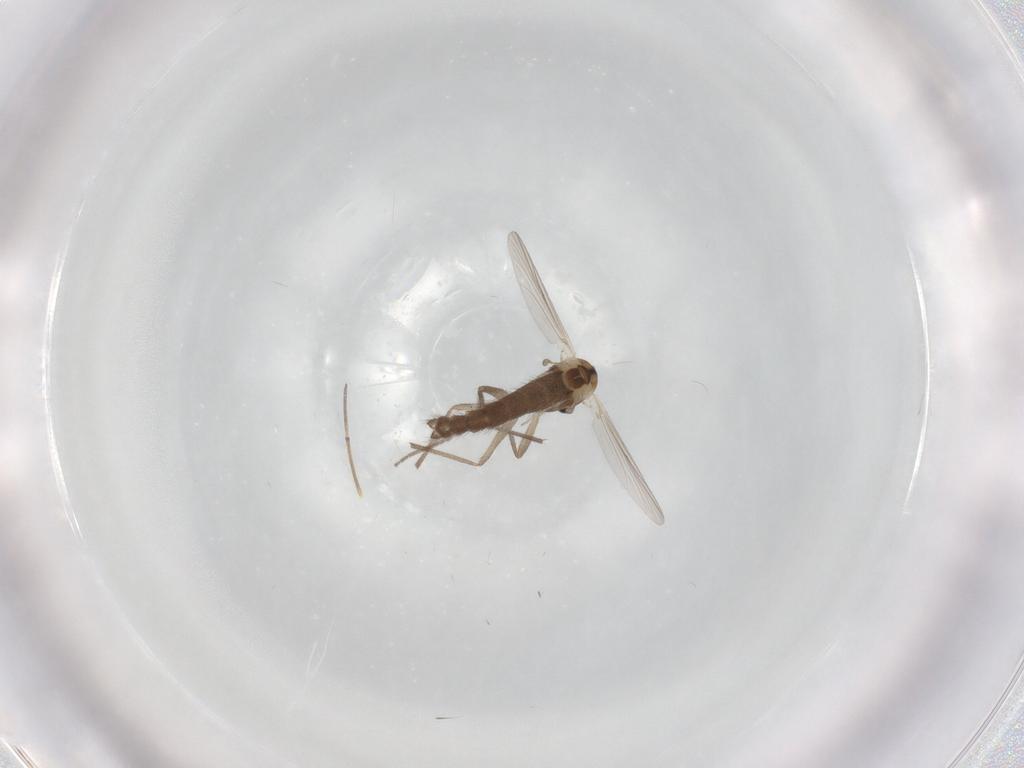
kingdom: Animalia
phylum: Arthropoda
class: Insecta
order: Diptera
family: Chironomidae
